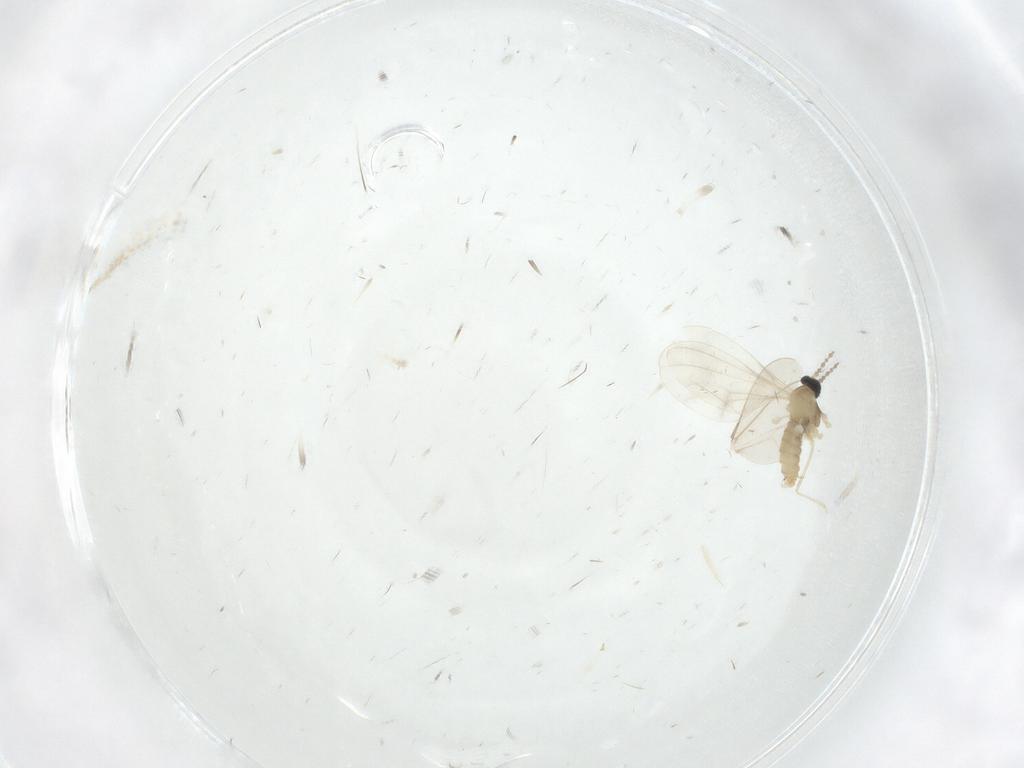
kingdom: Animalia
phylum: Arthropoda
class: Insecta
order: Diptera
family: Cecidomyiidae
